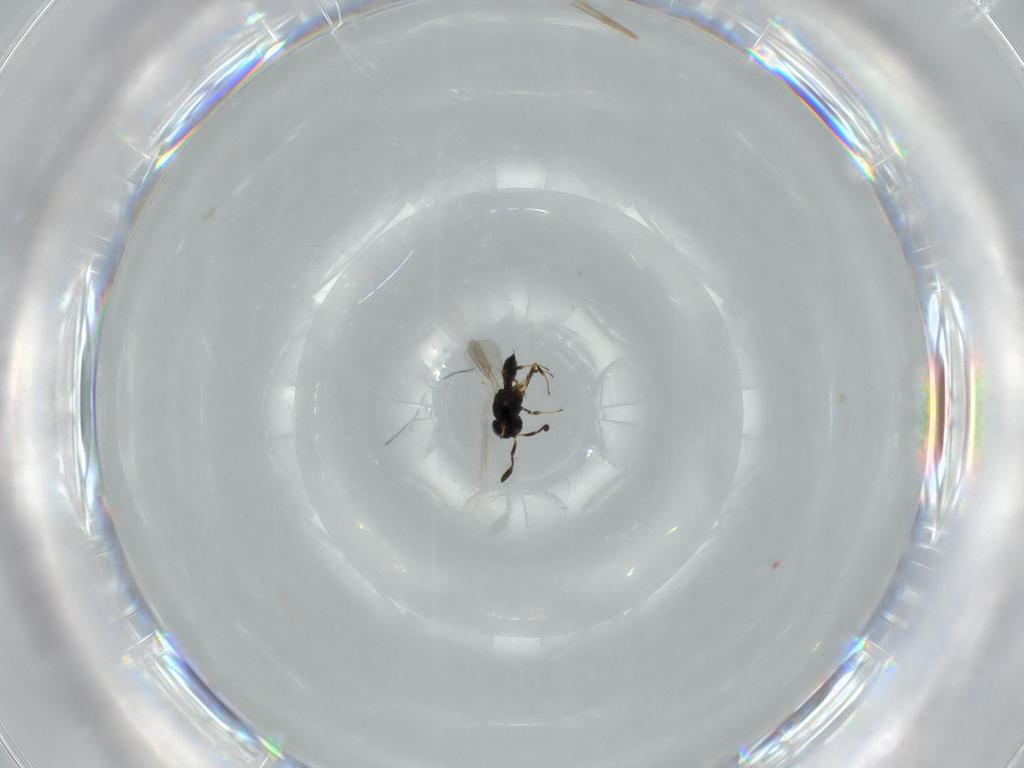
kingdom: Animalia
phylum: Arthropoda
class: Insecta
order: Hymenoptera
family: Scelionidae
